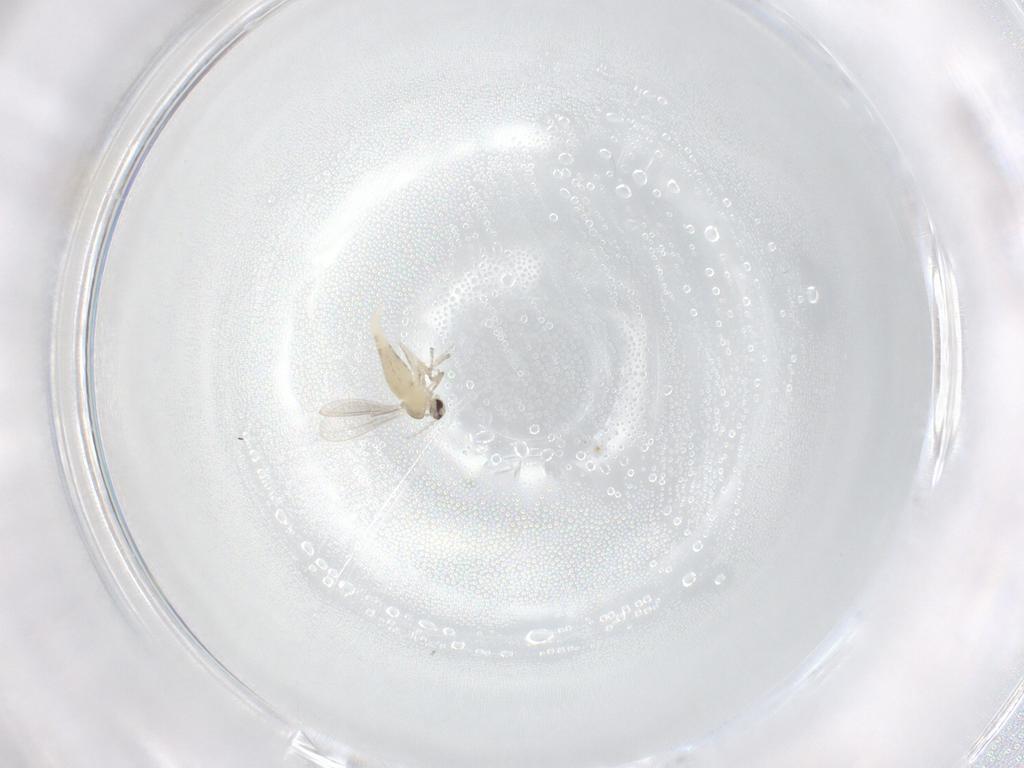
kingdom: Animalia
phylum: Arthropoda
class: Insecta
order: Diptera
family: Cecidomyiidae
